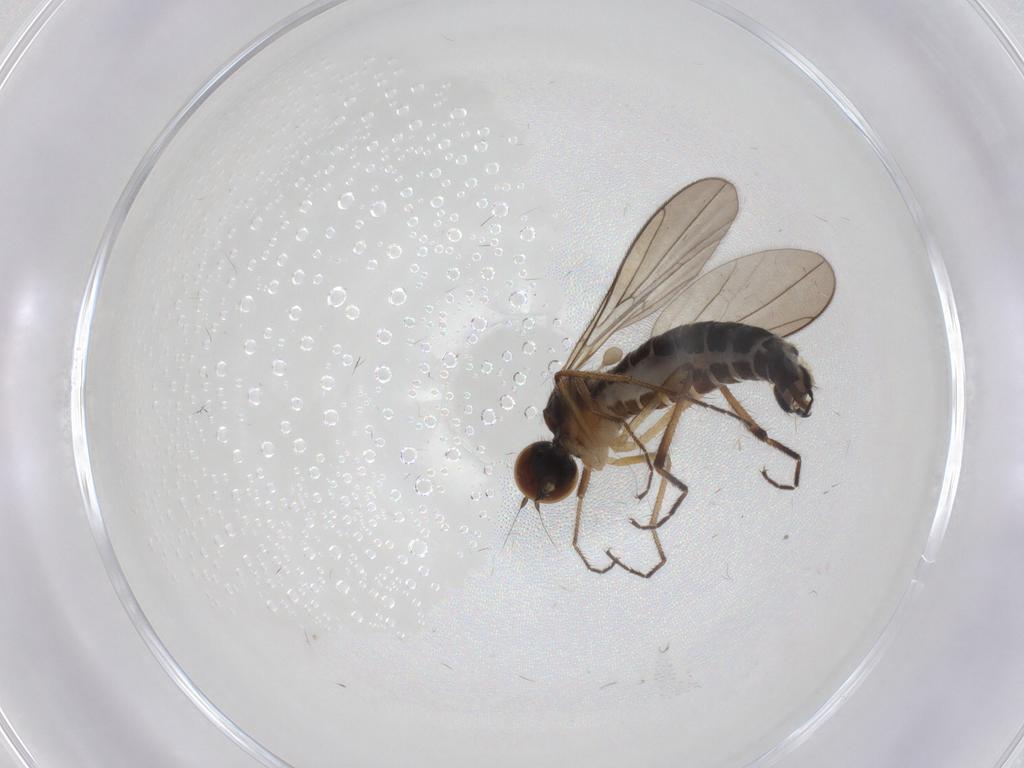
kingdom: Animalia
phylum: Arthropoda
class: Insecta
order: Diptera
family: Hybotidae
